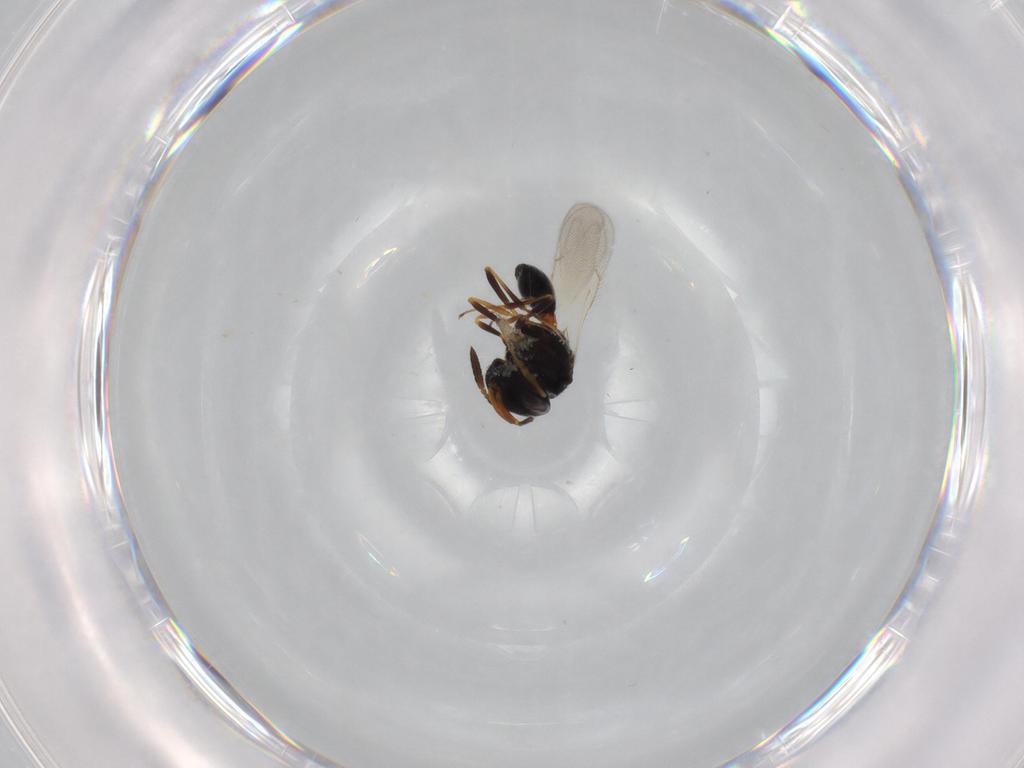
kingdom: Animalia
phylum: Arthropoda
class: Insecta
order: Hymenoptera
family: Scelionidae
